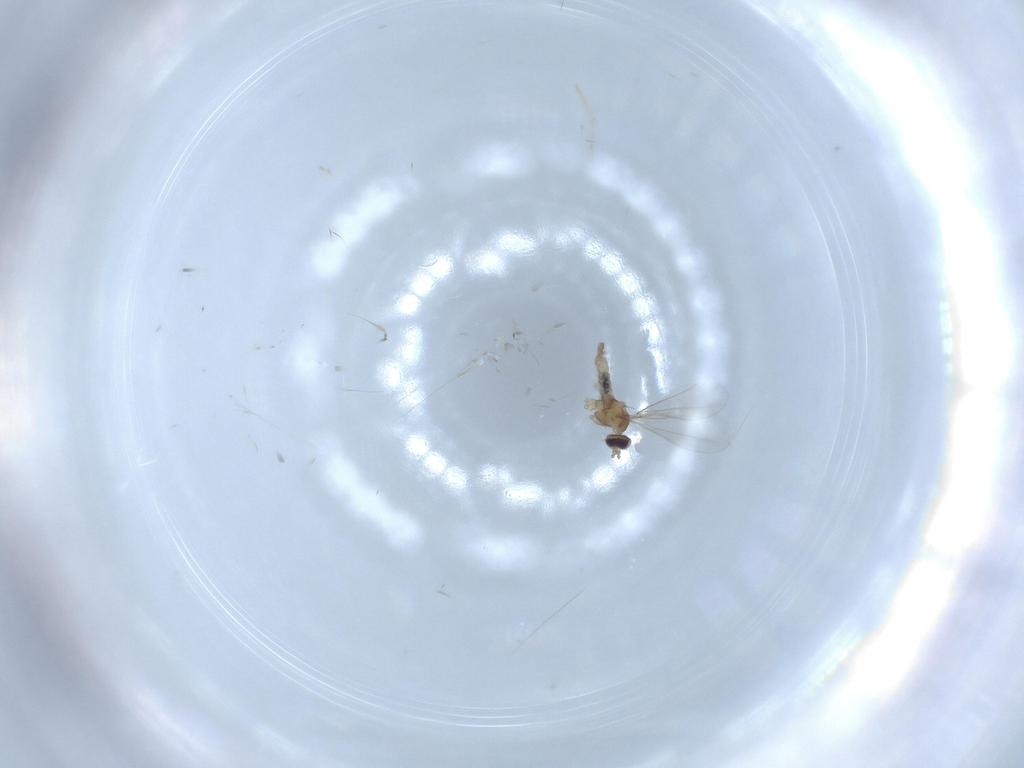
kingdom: Animalia
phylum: Arthropoda
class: Insecta
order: Diptera
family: Cecidomyiidae
